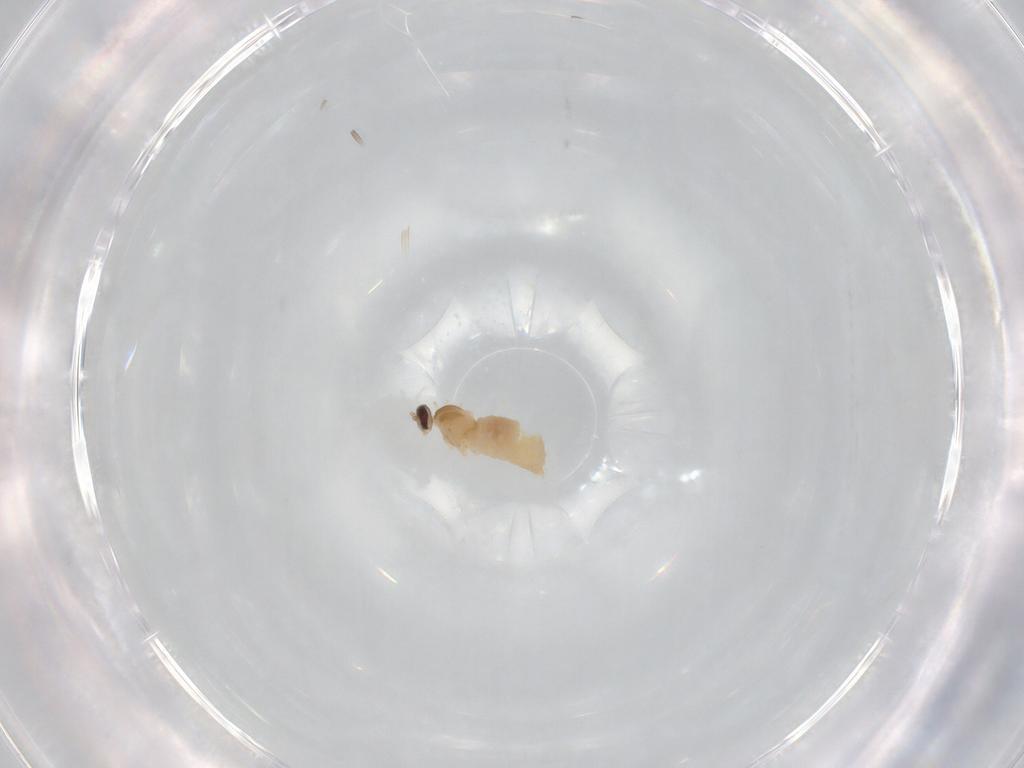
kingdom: Animalia
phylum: Arthropoda
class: Insecta
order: Diptera
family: Cecidomyiidae
